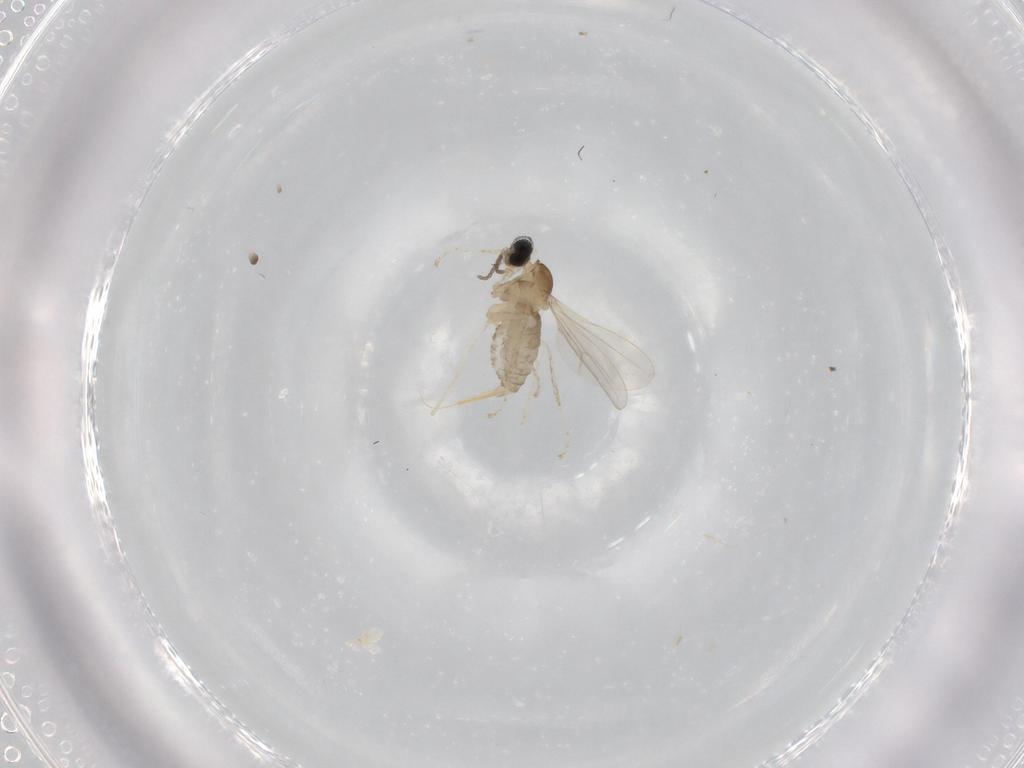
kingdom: Animalia
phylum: Arthropoda
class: Insecta
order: Diptera
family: Cecidomyiidae
